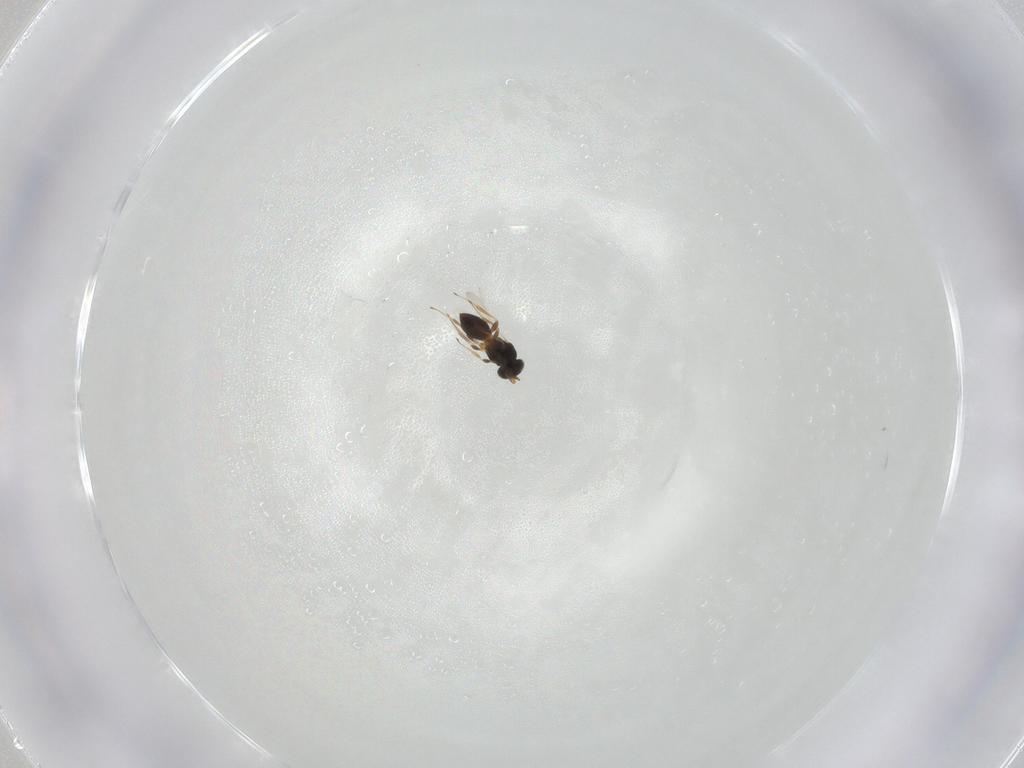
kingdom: Animalia
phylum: Arthropoda
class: Insecta
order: Hymenoptera
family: Platygastridae
